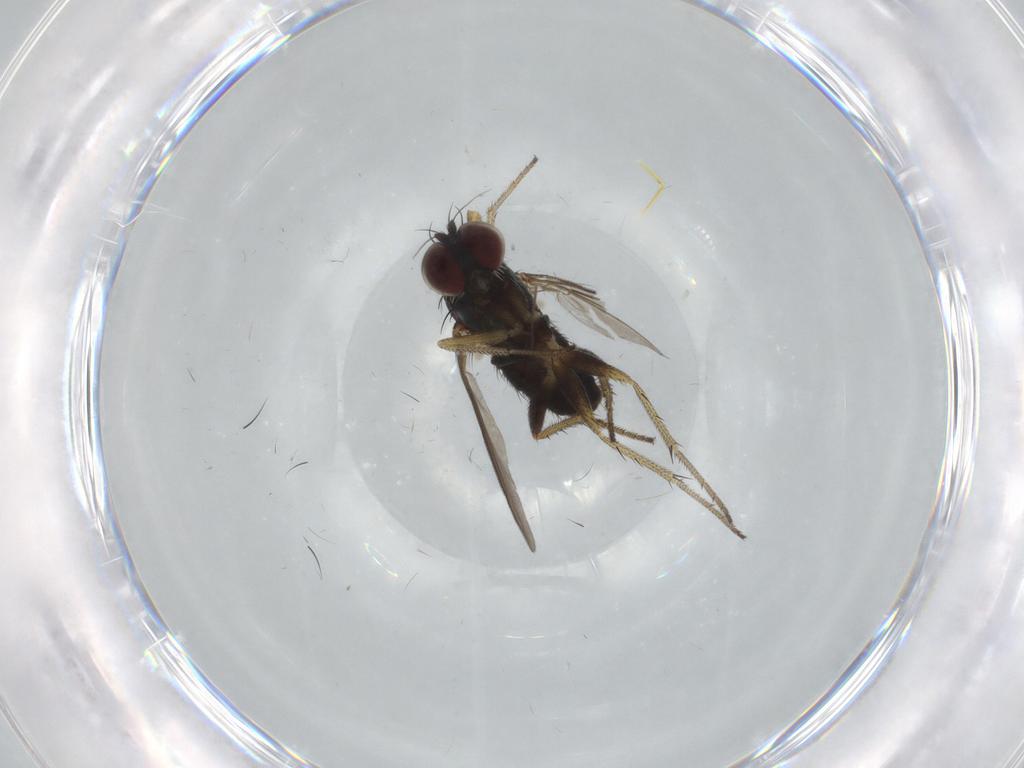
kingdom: Animalia
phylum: Arthropoda
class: Insecta
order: Diptera
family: Dolichopodidae
